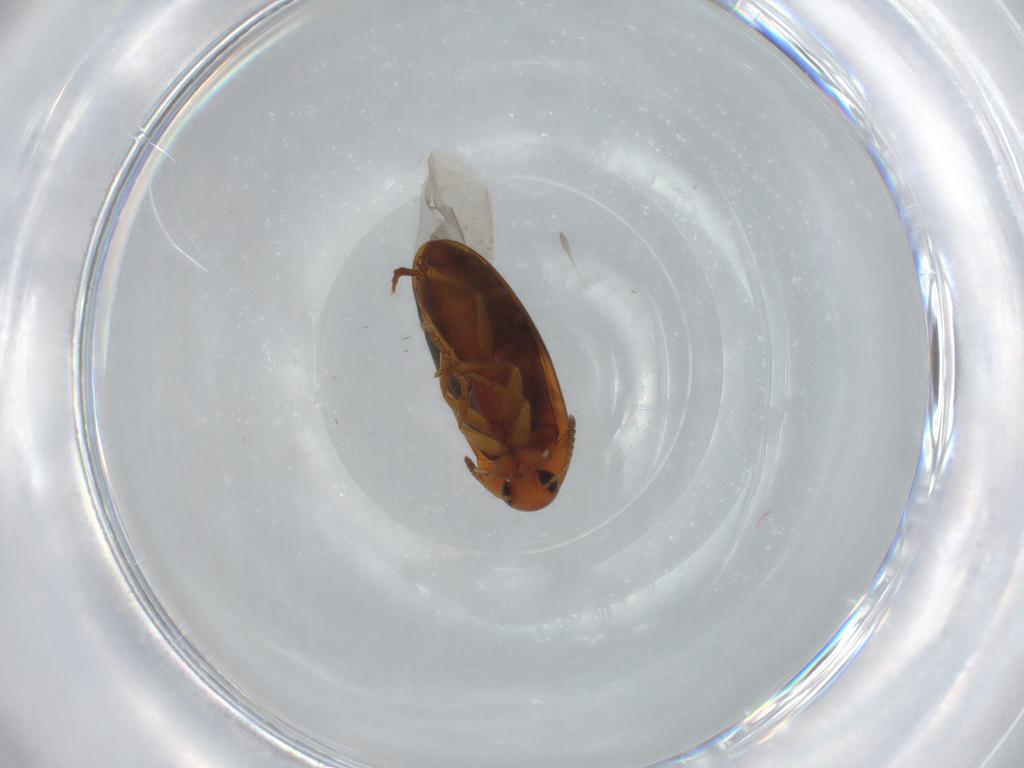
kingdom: Animalia
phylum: Arthropoda
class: Insecta
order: Coleoptera
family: Scraptiidae
